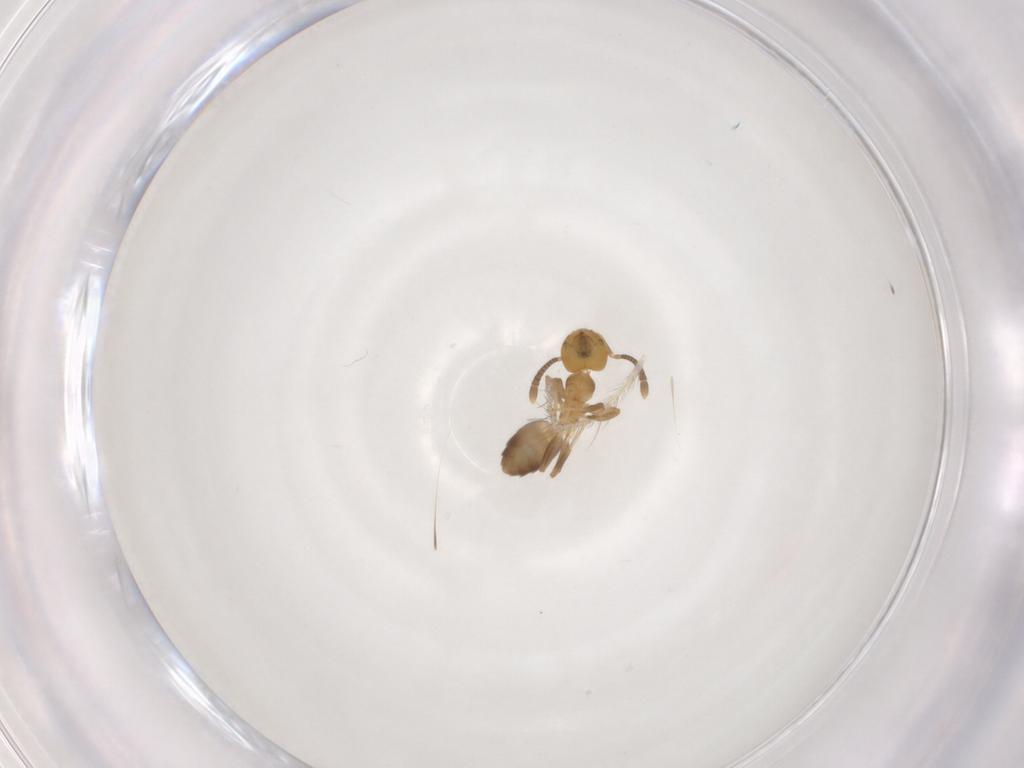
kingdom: Animalia
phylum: Arthropoda
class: Insecta
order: Hymenoptera
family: Formicidae
